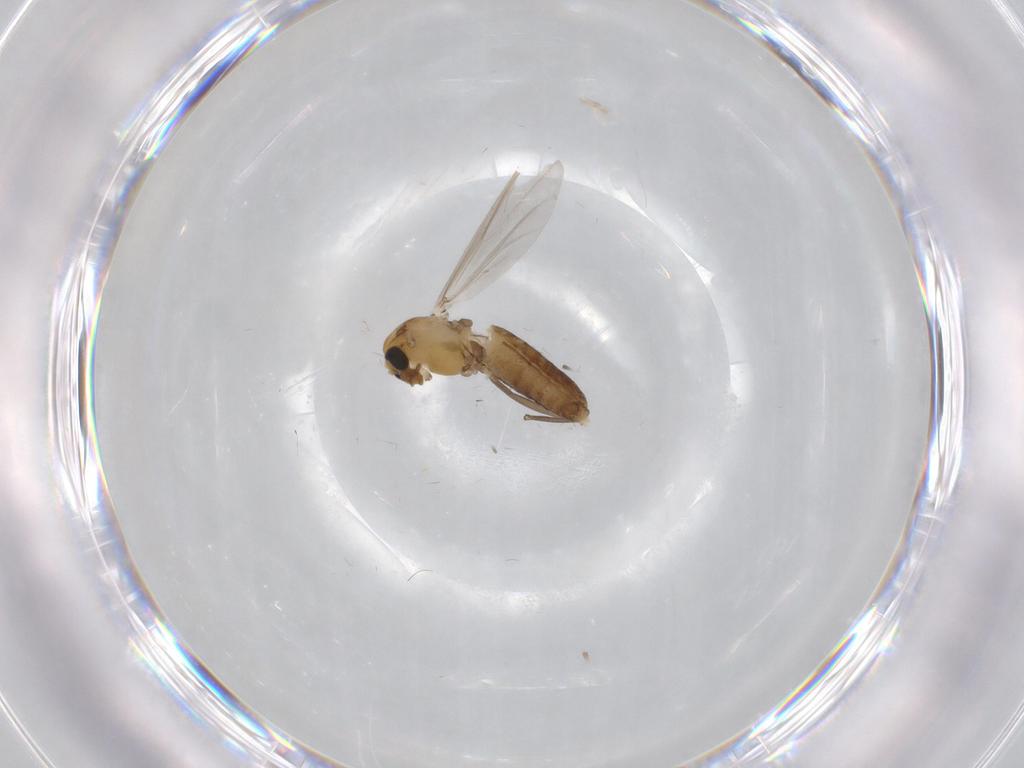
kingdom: Animalia
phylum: Arthropoda
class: Insecta
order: Diptera
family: Chironomidae
